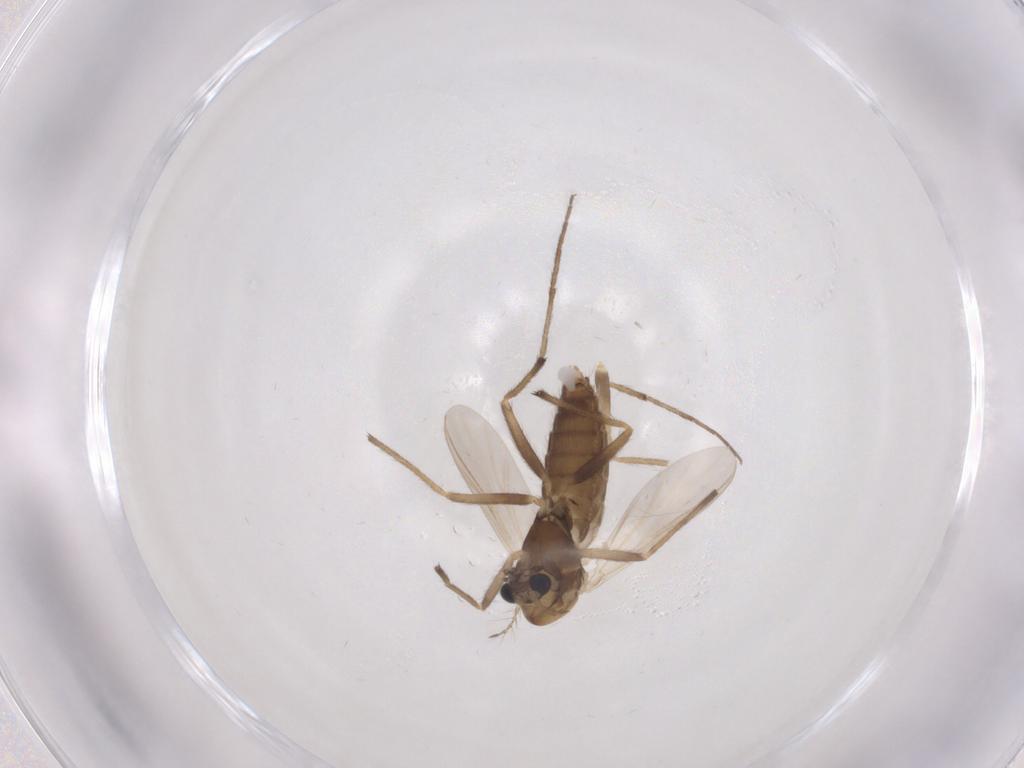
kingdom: Animalia
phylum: Arthropoda
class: Insecta
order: Diptera
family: Chironomidae
